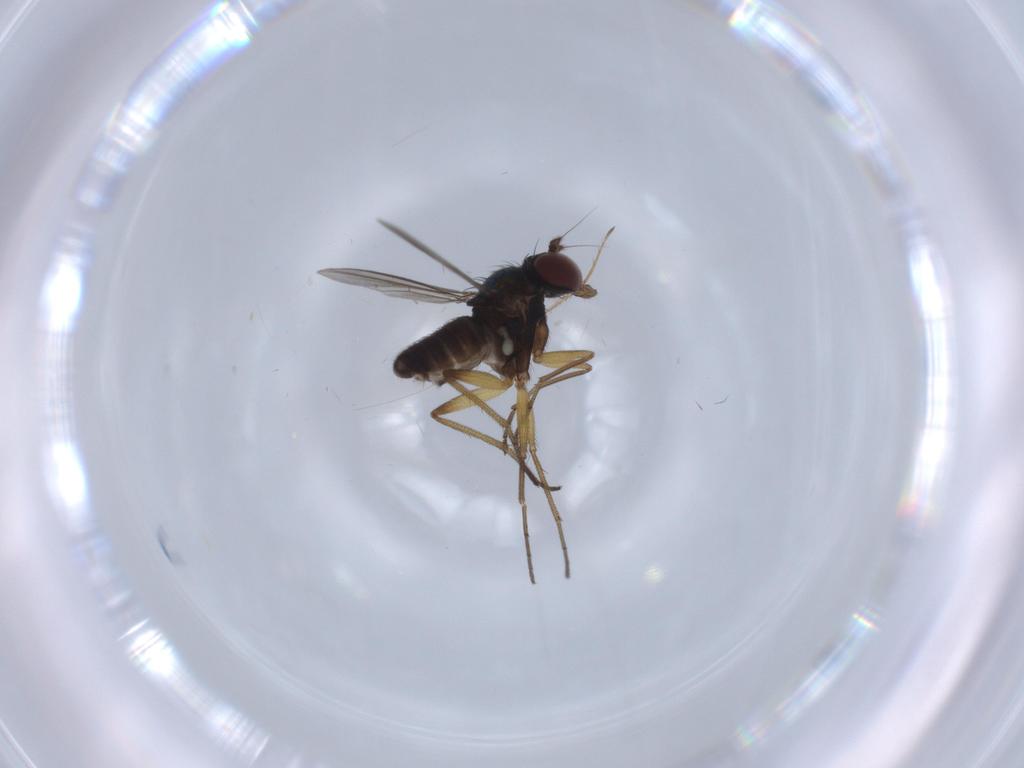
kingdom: Animalia
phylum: Arthropoda
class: Insecta
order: Diptera
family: Dolichopodidae
